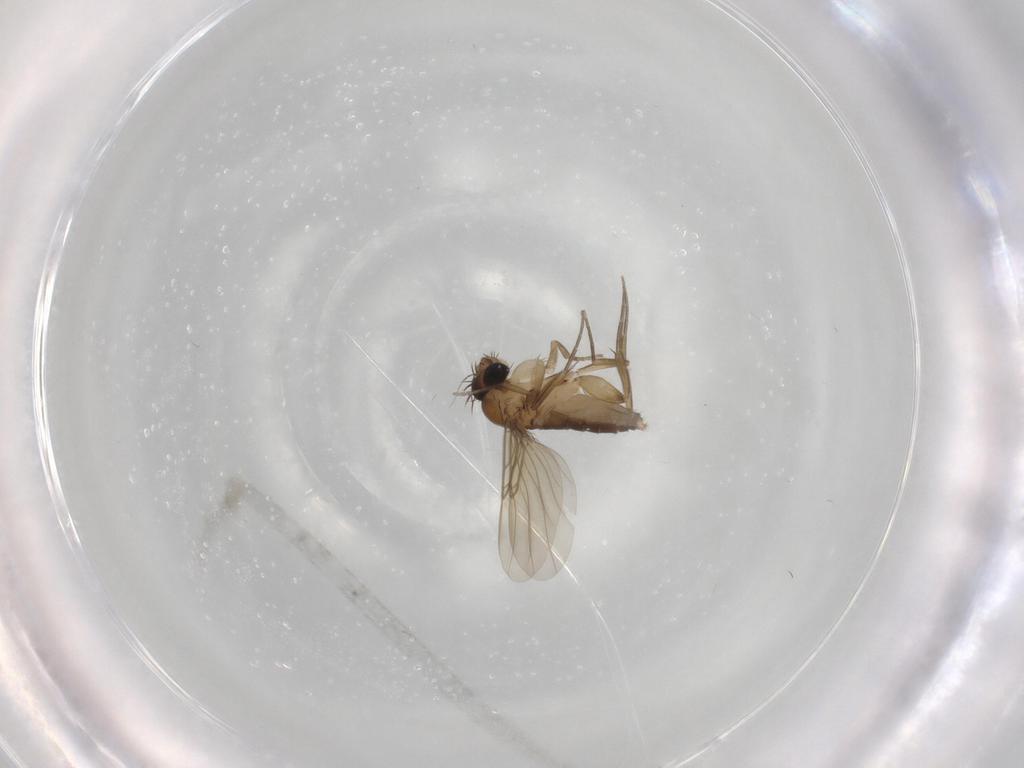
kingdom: Animalia
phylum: Arthropoda
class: Insecta
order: Diptera
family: Phoridae
